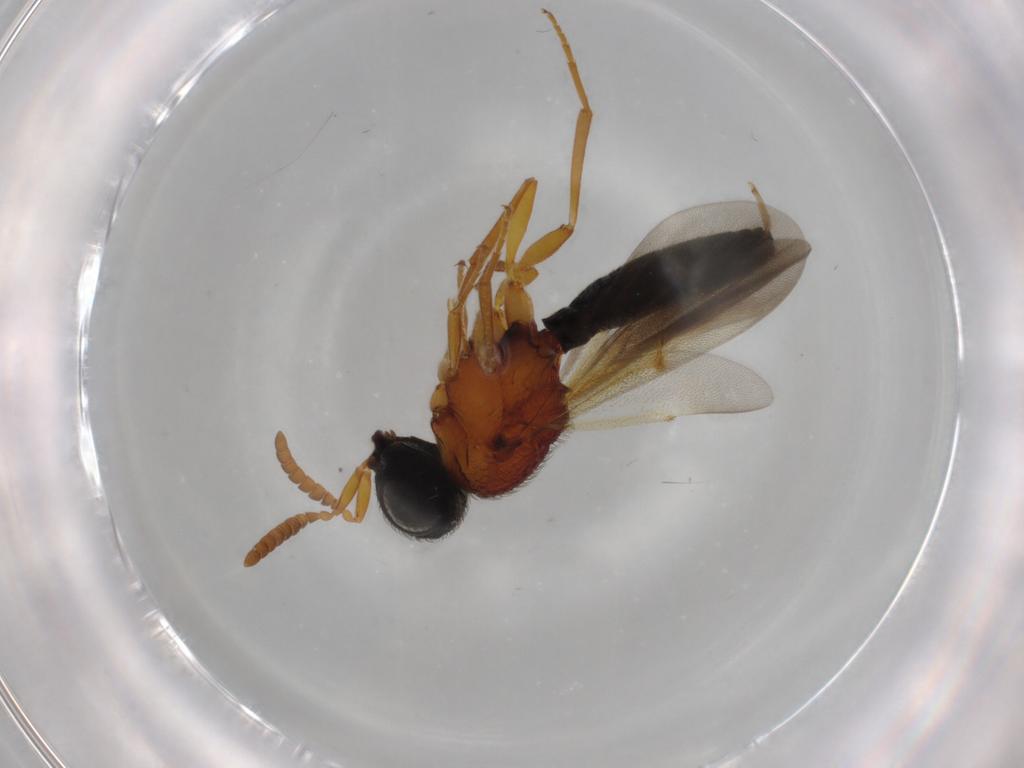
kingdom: Animalia
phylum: Arthropoda
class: Insecta
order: Hymenoptera
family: Scelionidae
